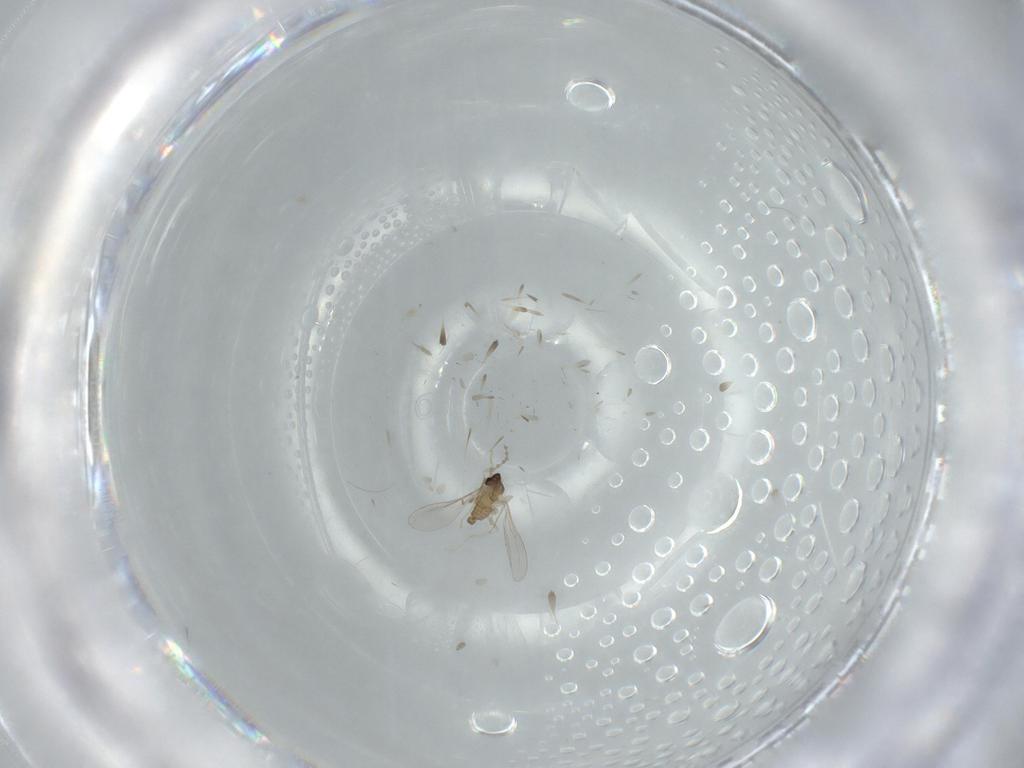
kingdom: Animalia
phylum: Arthropoda
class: Insecta
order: Diptera
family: Cecidomyiidae
